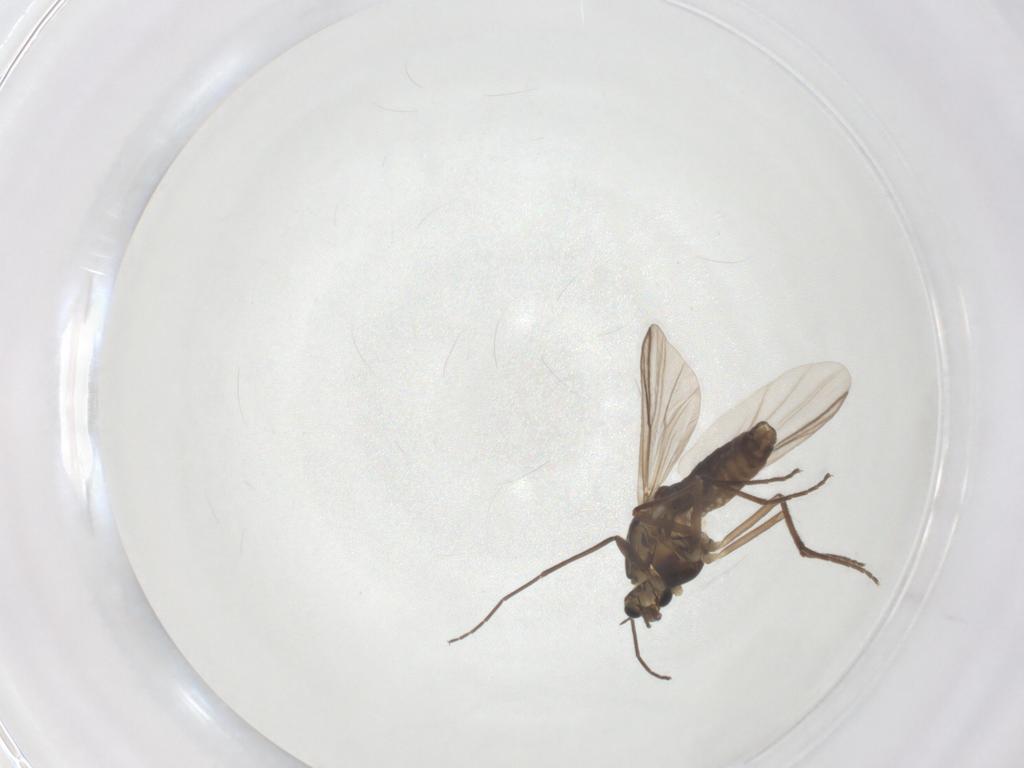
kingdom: Animalia
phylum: Arthropoda
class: Insecta
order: Diptera
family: Chironomidae
